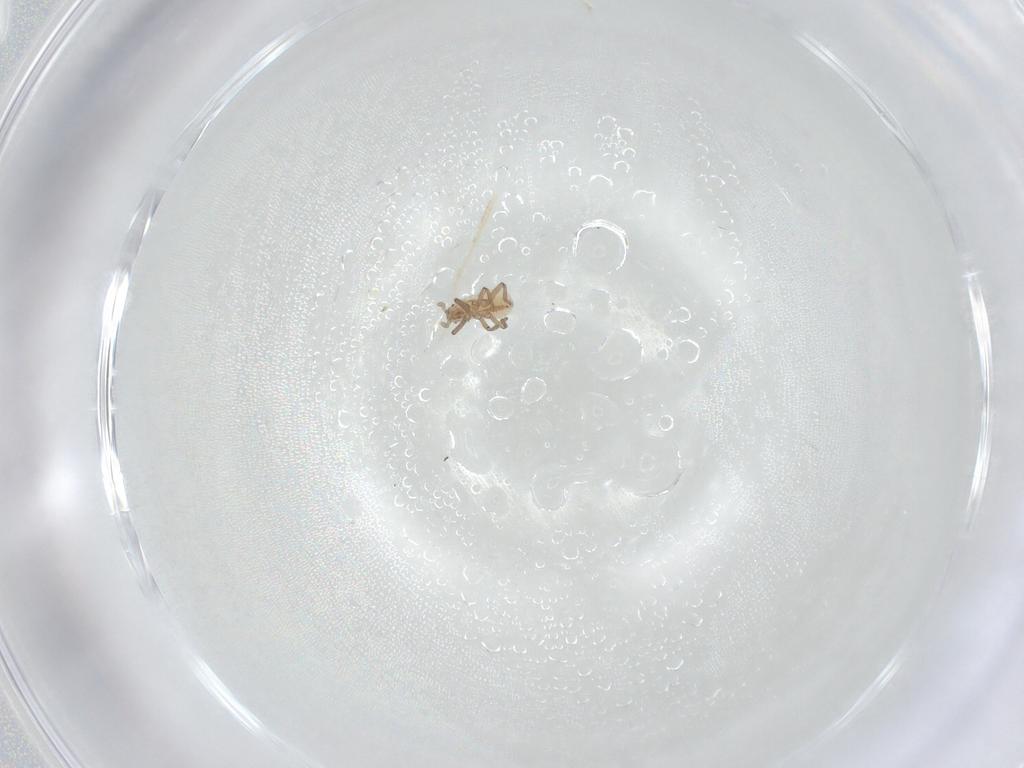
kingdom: Animalia
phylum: Arthropoda
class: Insecta
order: Hemiptera
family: Aphididae
